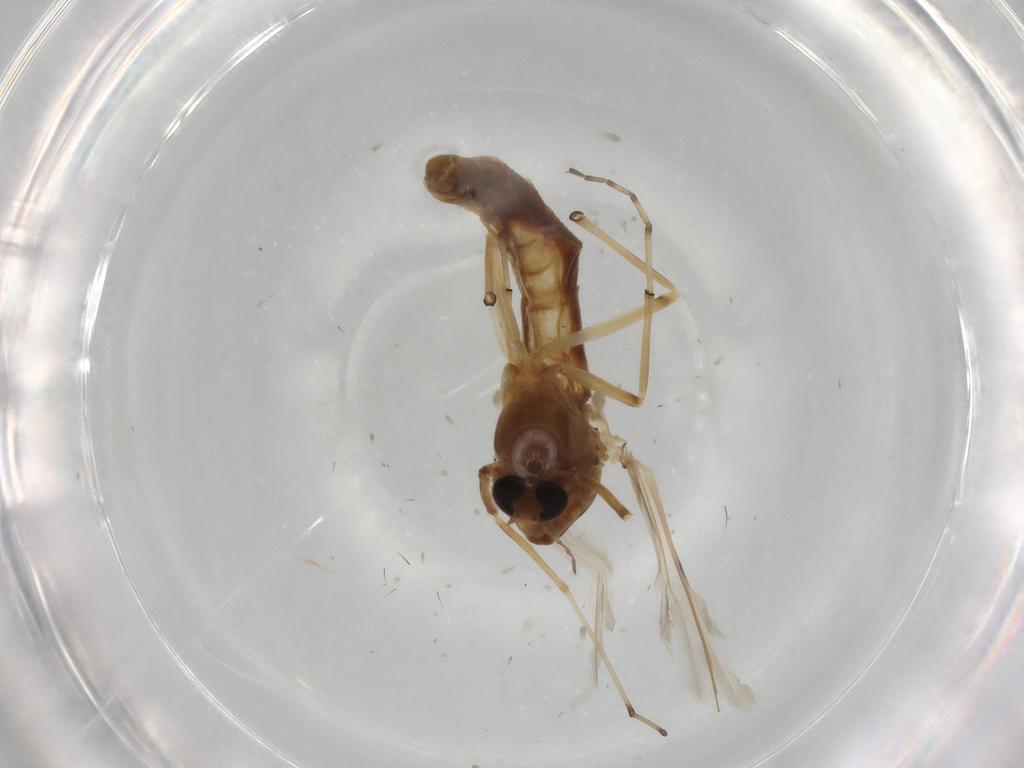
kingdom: Animalia
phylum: Arthropoda
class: Insecta
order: Diptera
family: Chironomidae
